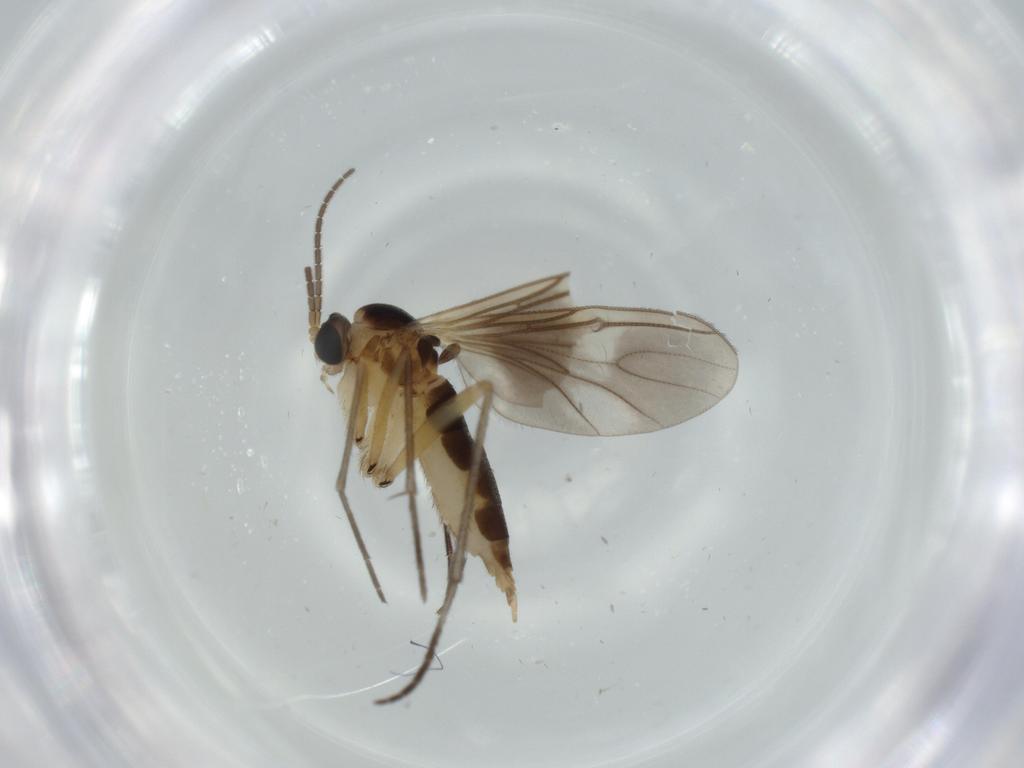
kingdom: Animalia
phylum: Arthropoda
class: Insecta
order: Diptera
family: Sciaridae
